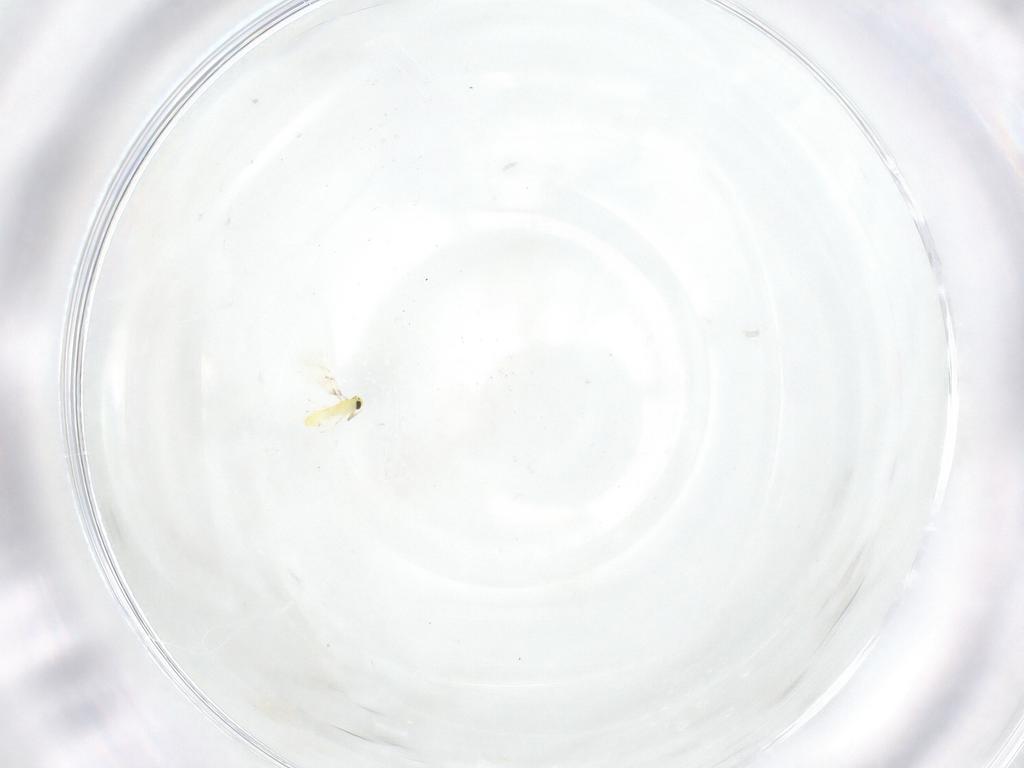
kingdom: Animalia
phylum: Arthropoda
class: Insecta
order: Hymenoptera
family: Trichogrammatidae
